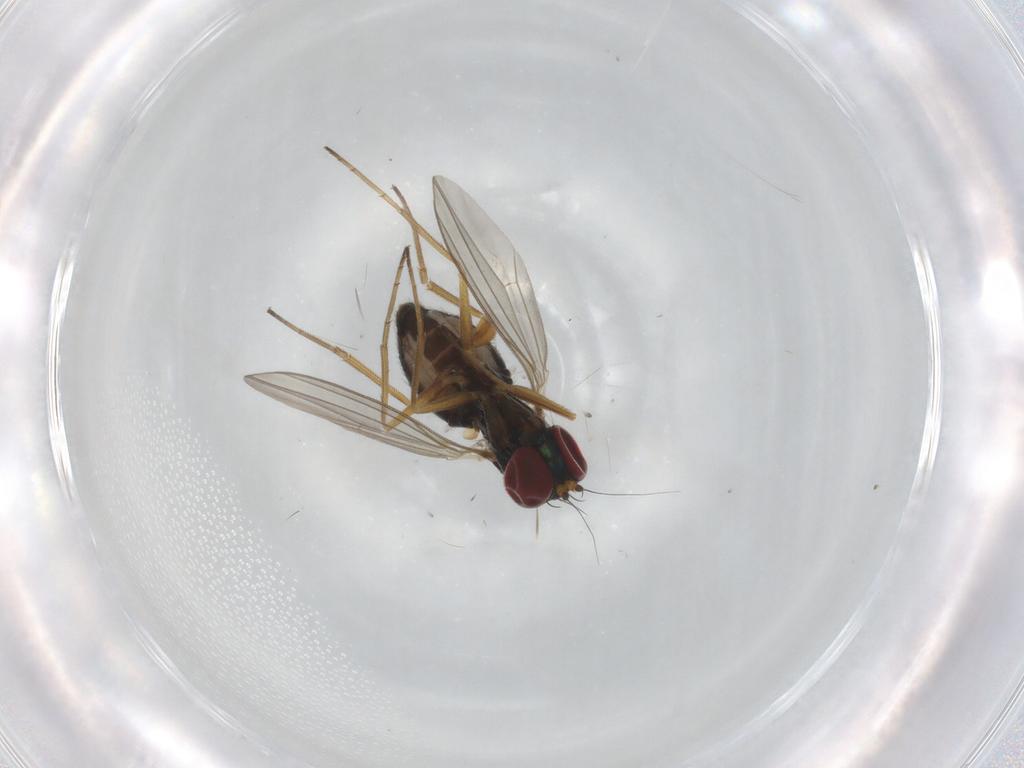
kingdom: Animalia
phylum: Arthropoda
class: Insecta
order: Diptera
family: Dolichopodidae
